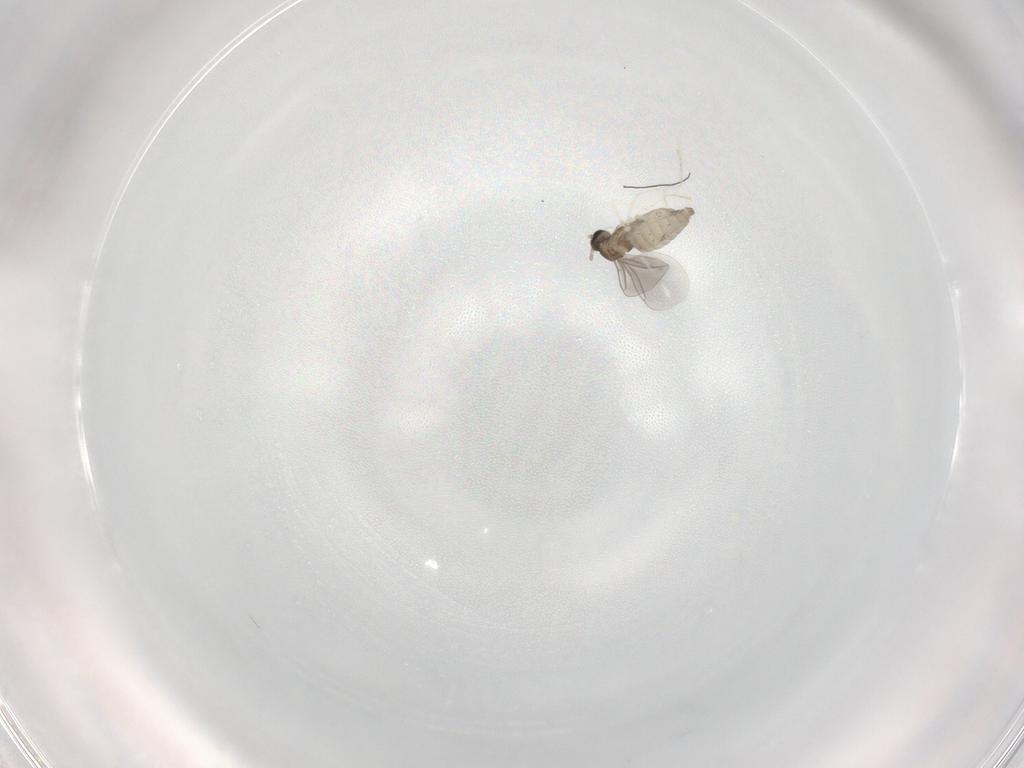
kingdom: Animalia
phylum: Arthropoda
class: Insecta
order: Diptera
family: Cecidomyiidae
